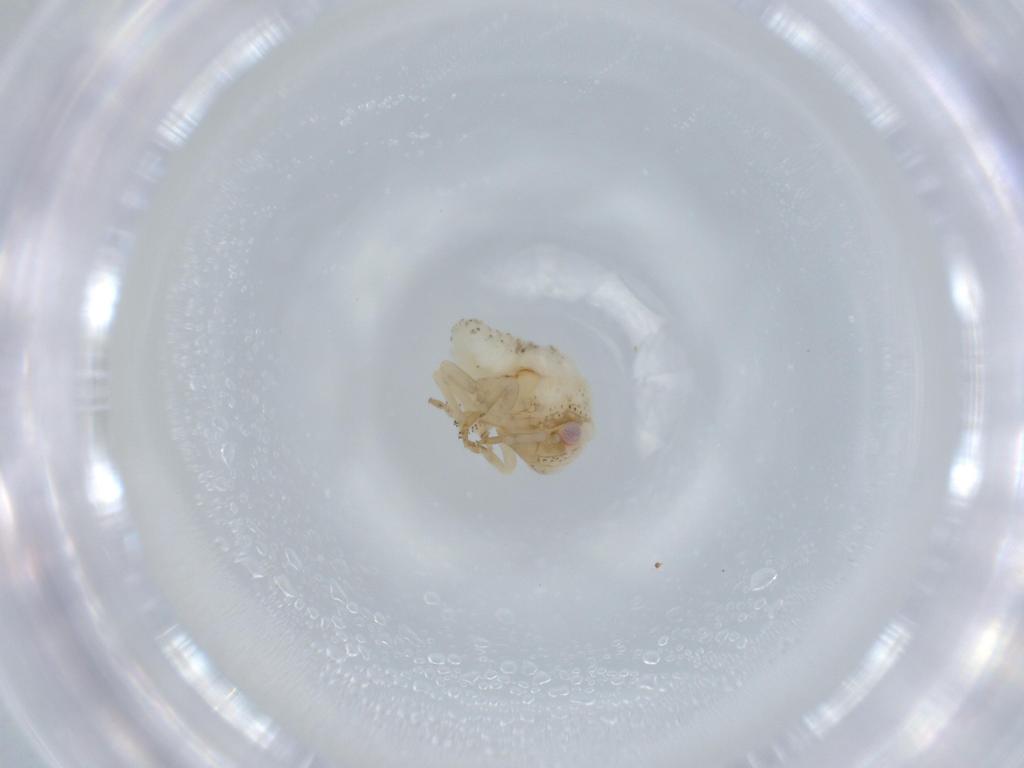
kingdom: Animalia
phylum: Arthropoda
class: Insecta
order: Hemiptera
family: Acanaloniidae
